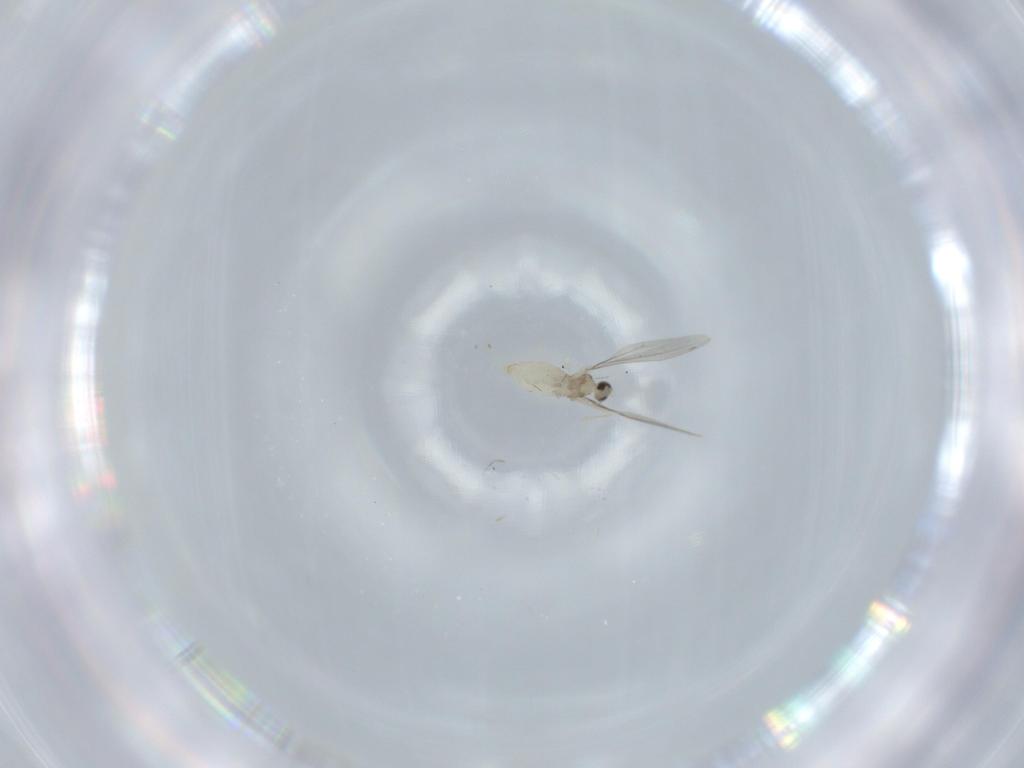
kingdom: Animalia
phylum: Arthropoda
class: Insecta
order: Diptera
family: Cecidomyiidae
